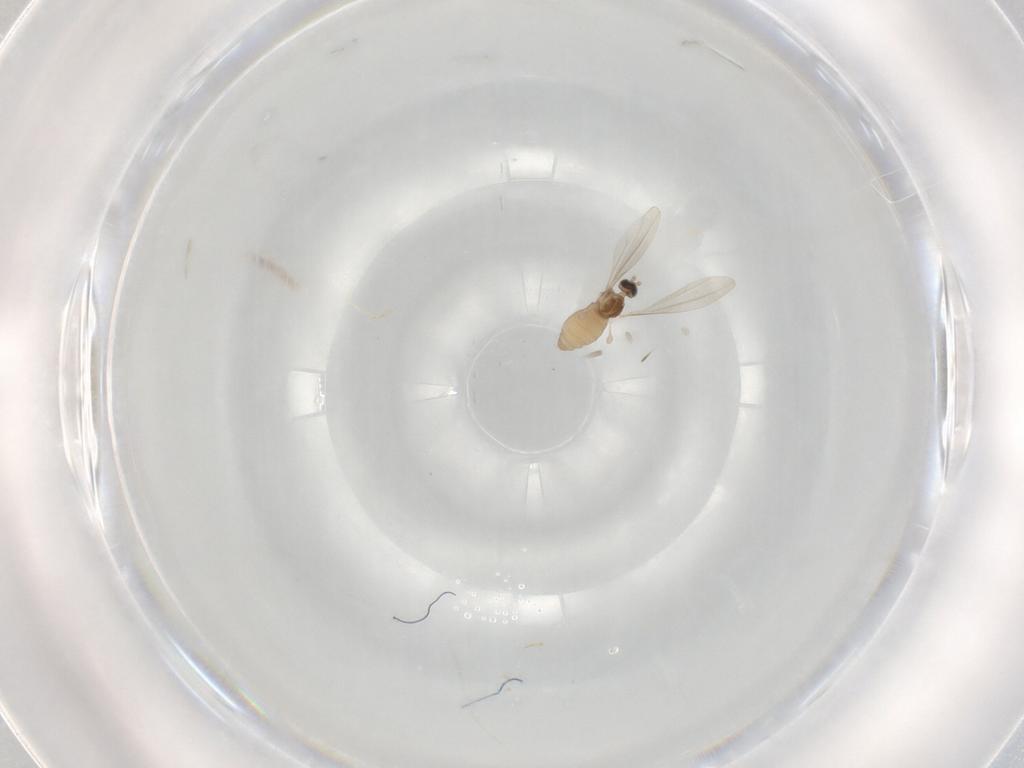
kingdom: Animalia
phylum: Arthropoda
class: Insecta
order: Diptera
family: Cecidomyiidae
